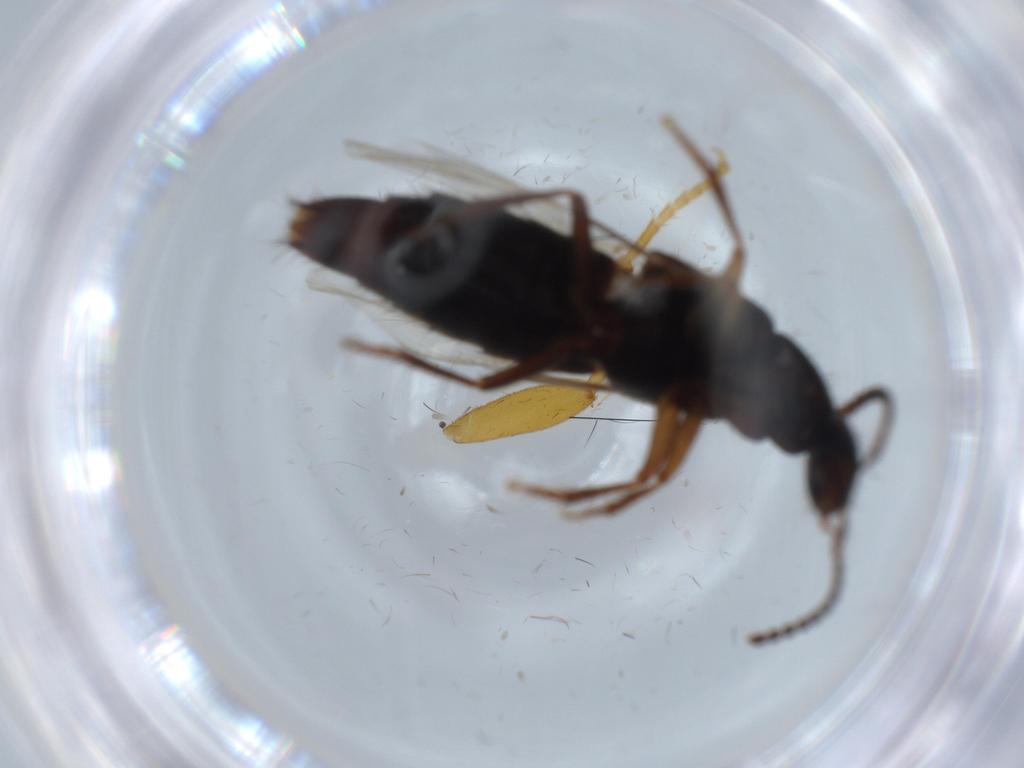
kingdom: Animalia
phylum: Arthropoda
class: Insecta
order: Coleoptera
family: Staphylinidae
